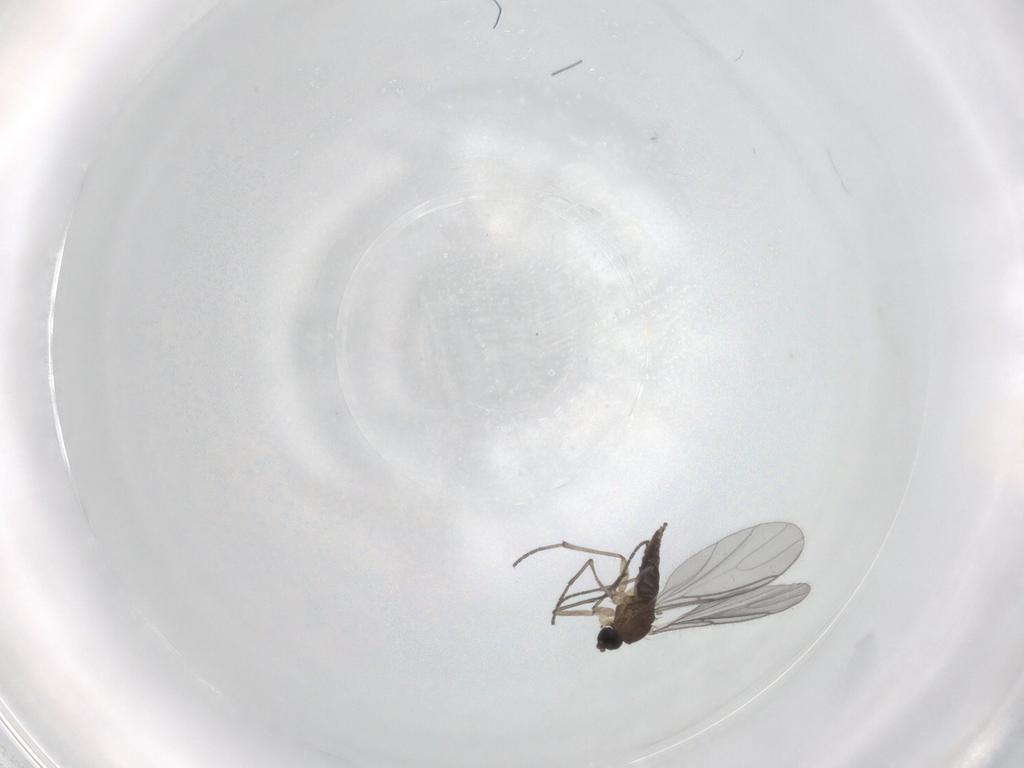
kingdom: Animalia
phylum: Arthropoda
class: Insecta
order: Diptera
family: Sciaridae
